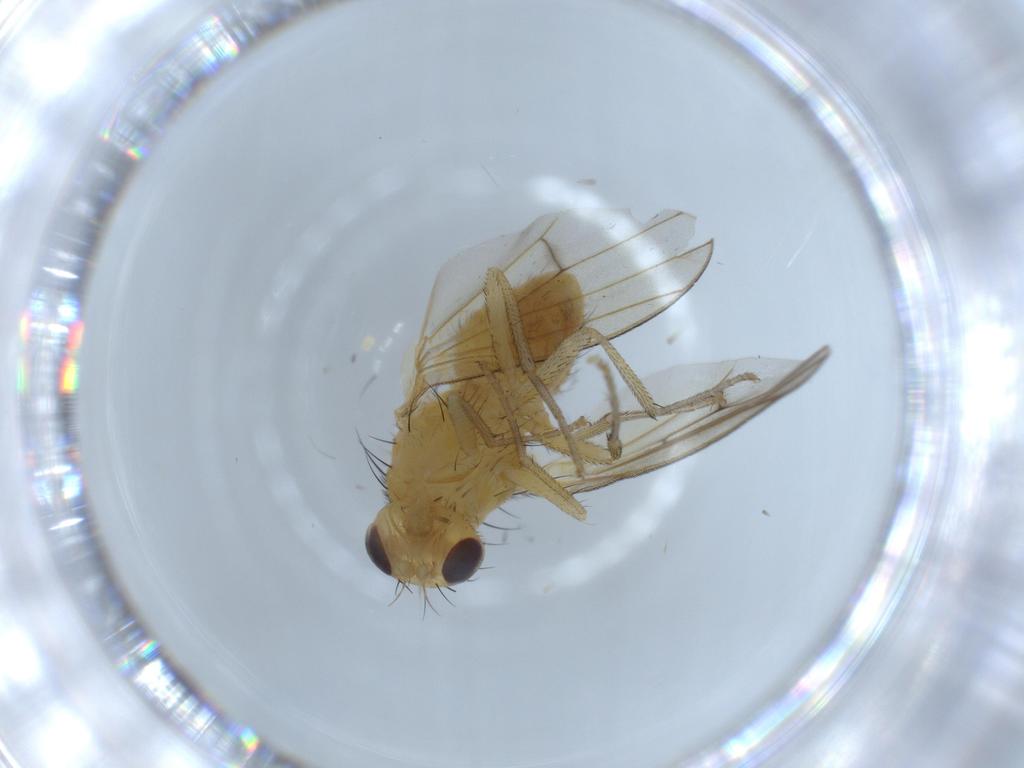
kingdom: Animalia
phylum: Arthropoda
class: Insecta
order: Diptera
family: Lauxaniidae
